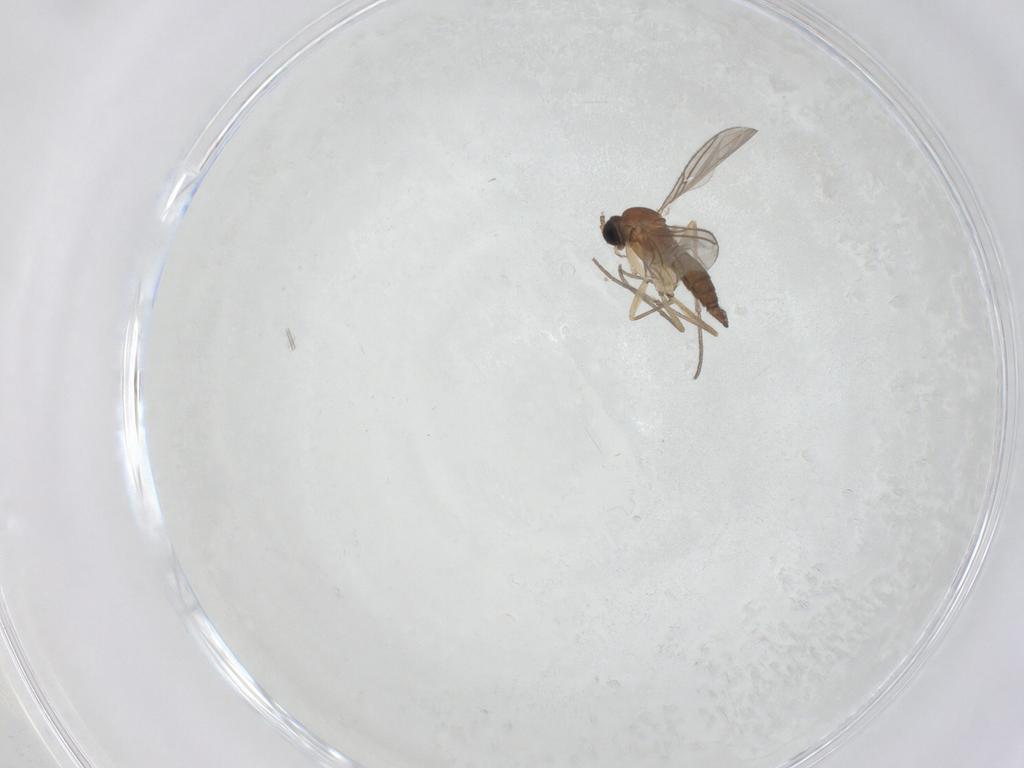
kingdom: Animalia
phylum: Arthropoda
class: Insecta
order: Diptera
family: Sciaridae
